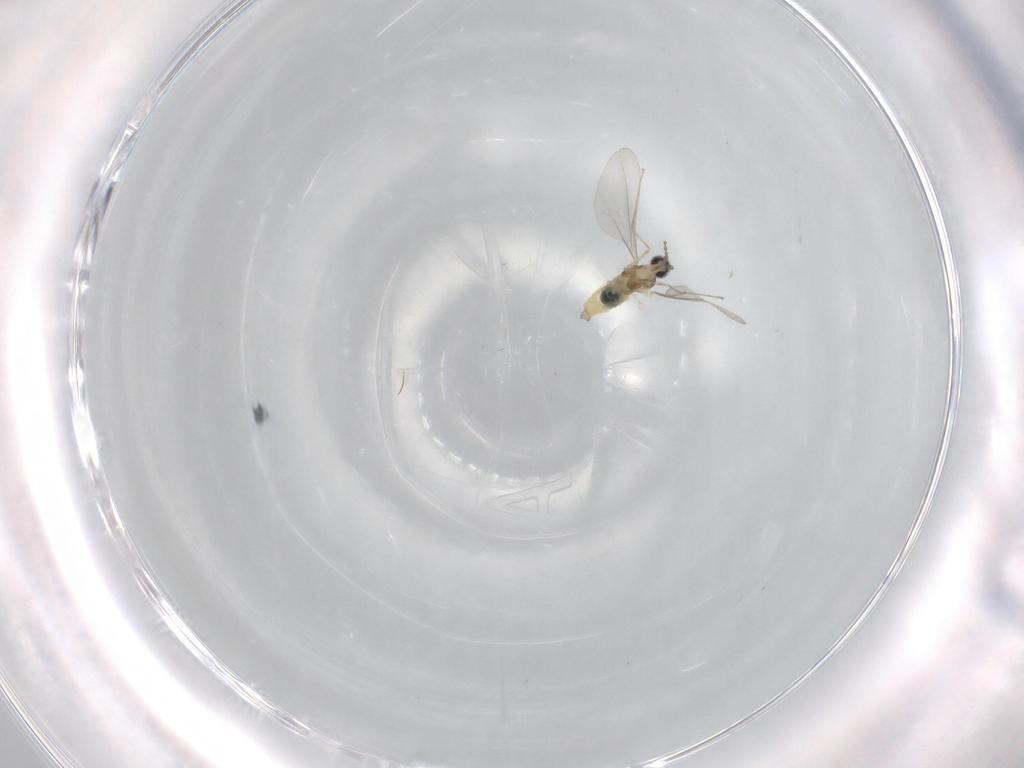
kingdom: Animalia
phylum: Arthropoda
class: Insecta
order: Diptera
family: Cecidomyiidae
